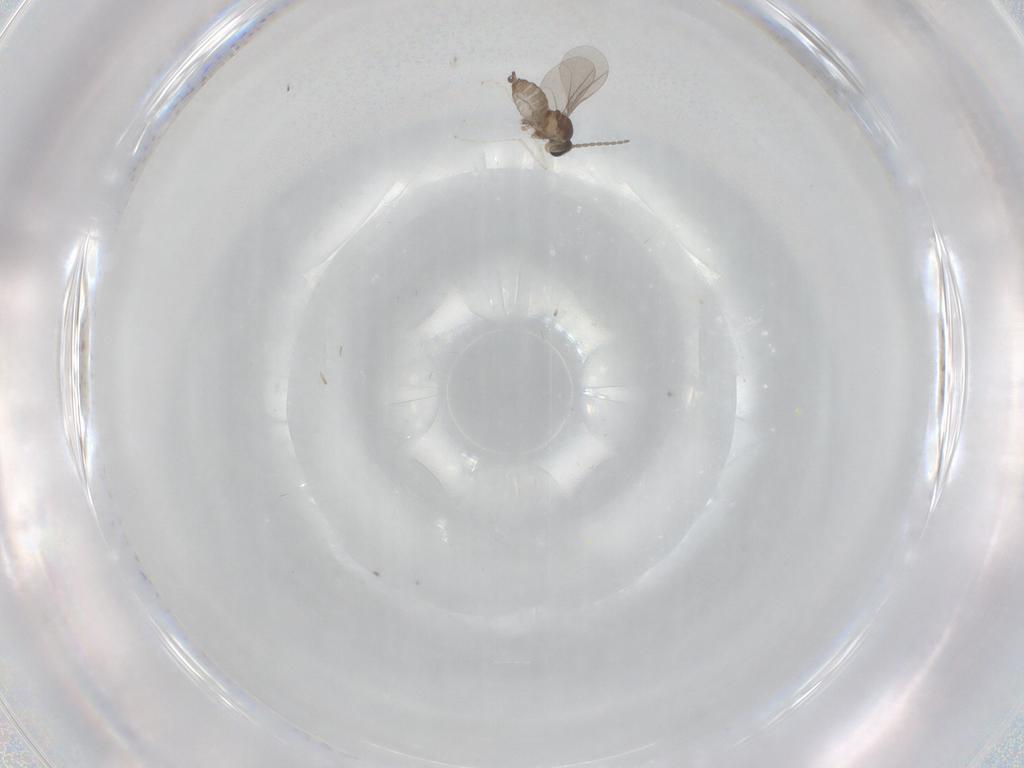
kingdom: Animalia
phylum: Arthropoda
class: Insecta
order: Diptera
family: Cecidomyiidae
